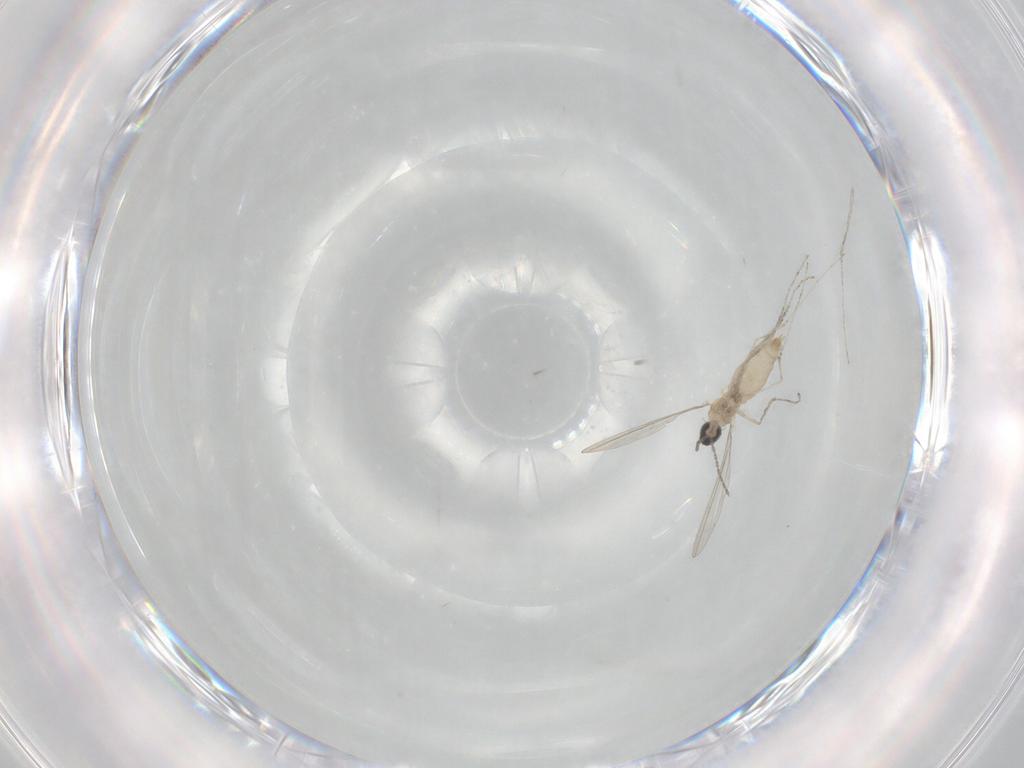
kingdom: Animalia
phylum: Arthropoda
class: Insecta
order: Diptera
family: Cecidomyiidae
